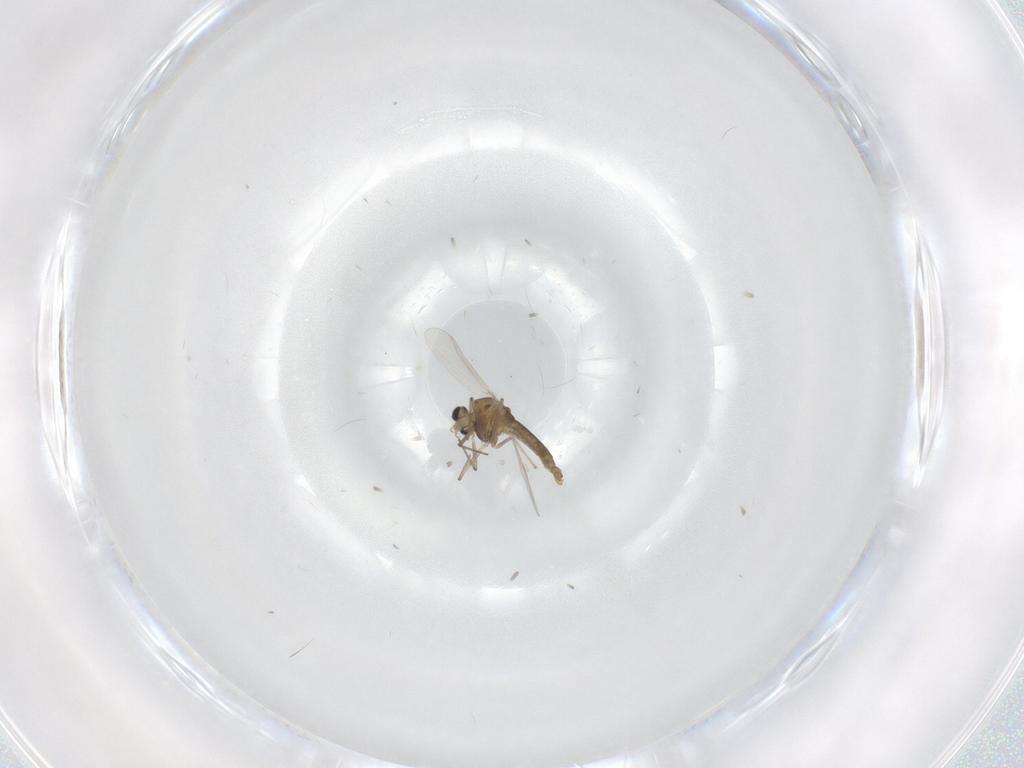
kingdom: Animalia
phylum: Arthropoda
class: Insecta
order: Diptera
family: Chironomidae
